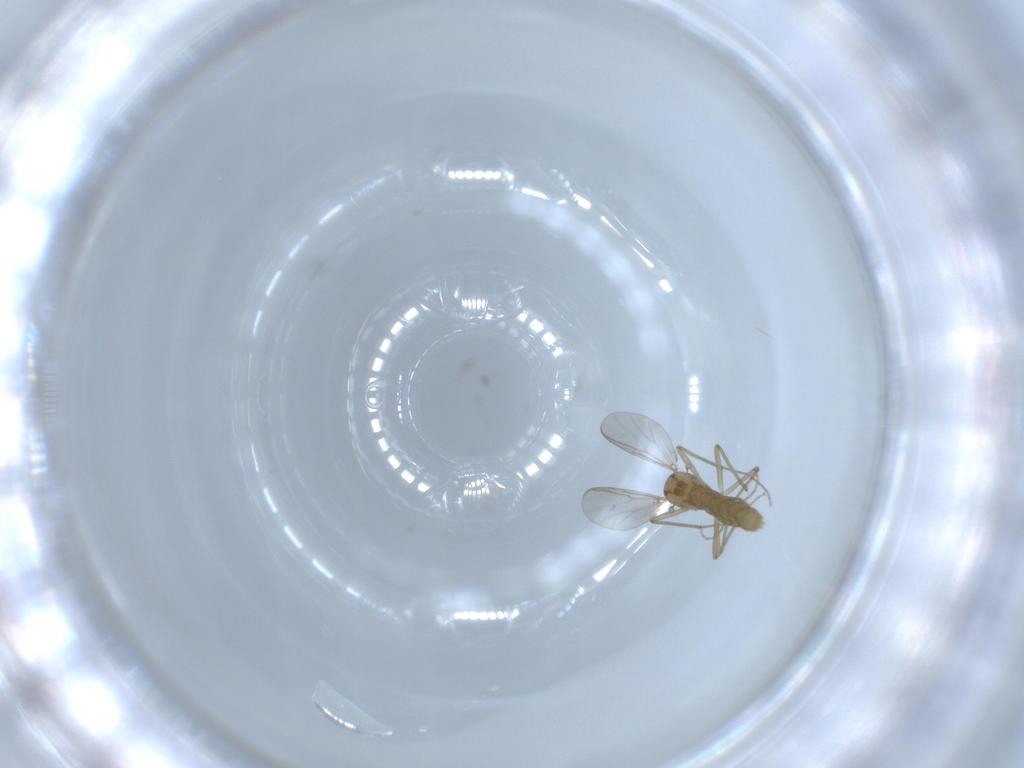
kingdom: Animalia
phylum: Arthropoda
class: Insecta
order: Diptera
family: Chironomidae
